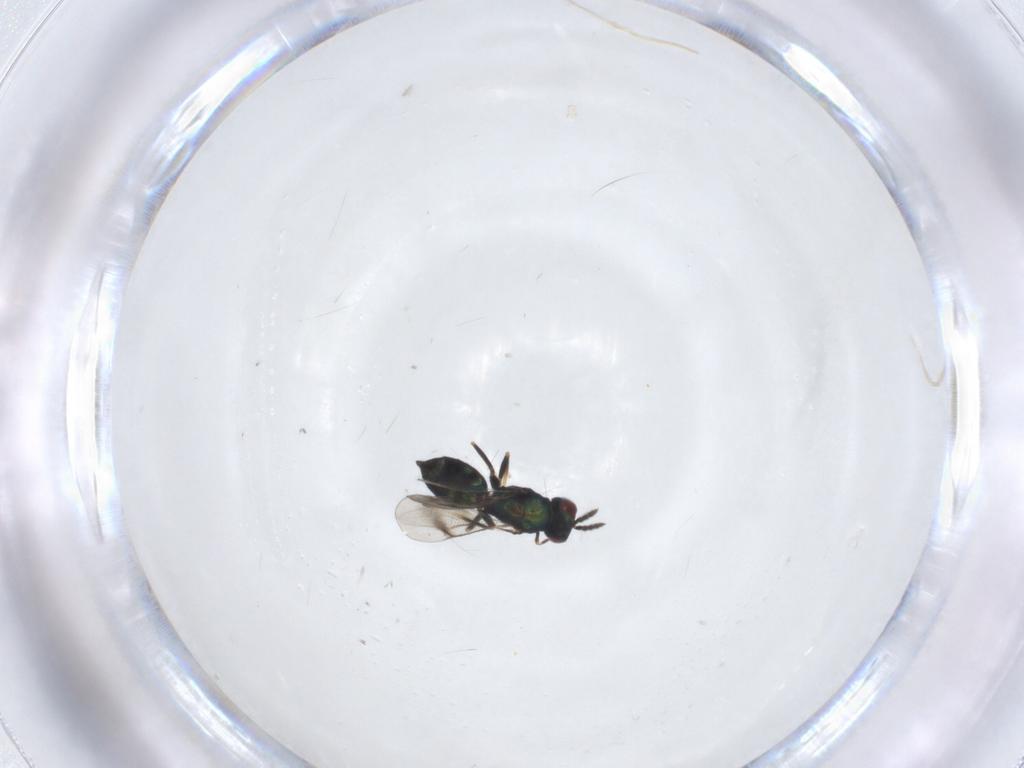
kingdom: Animalia
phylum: Arthropoda
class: Insecta
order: Hymenoptera
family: Eulophidae
